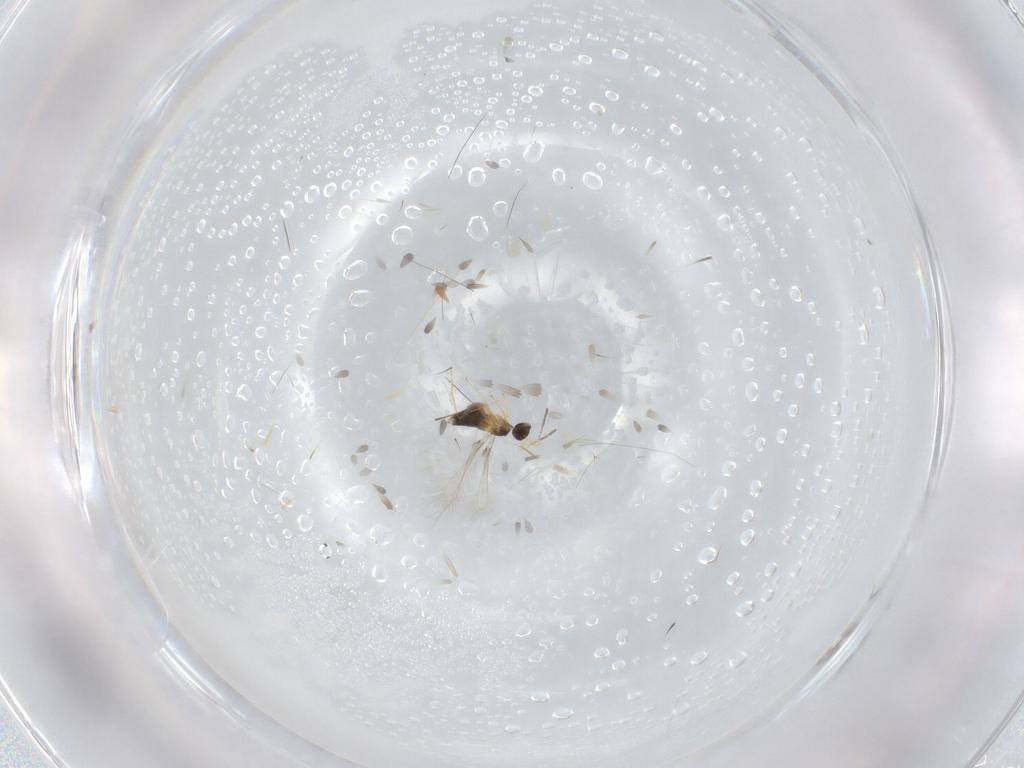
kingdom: Animalia
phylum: Arthropoda
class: Insecta
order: Hymenoptera
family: Mymaridae
